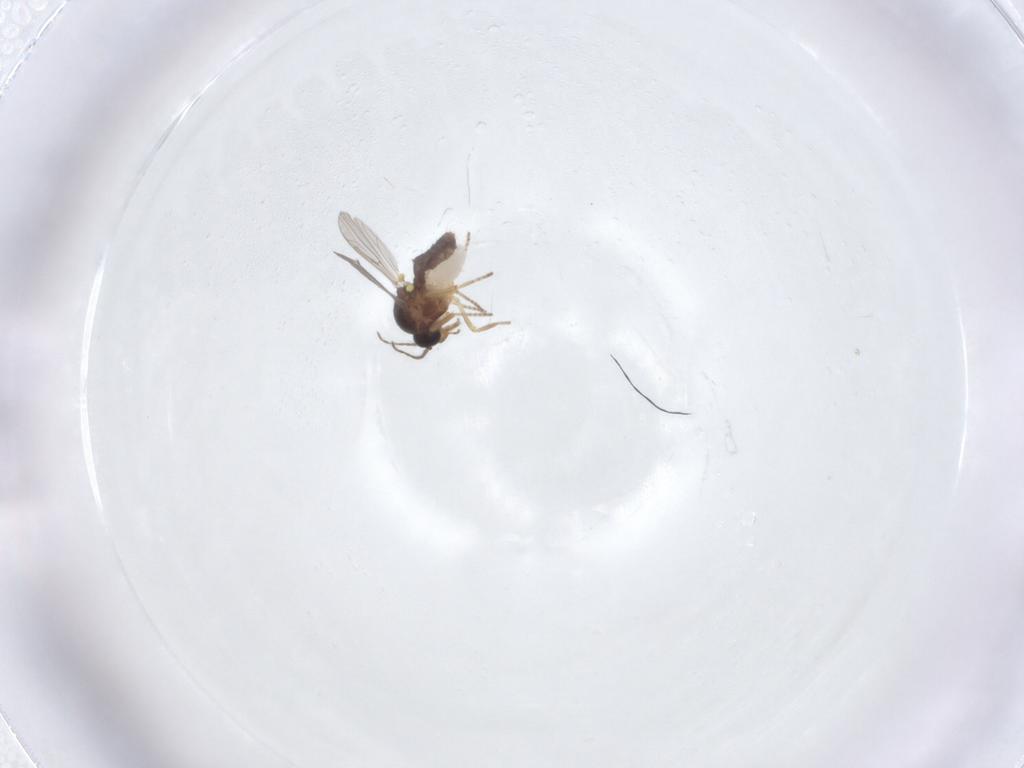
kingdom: Animalia
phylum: Arthropoda
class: Insecta
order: Diptera
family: Ceratopogonidae
